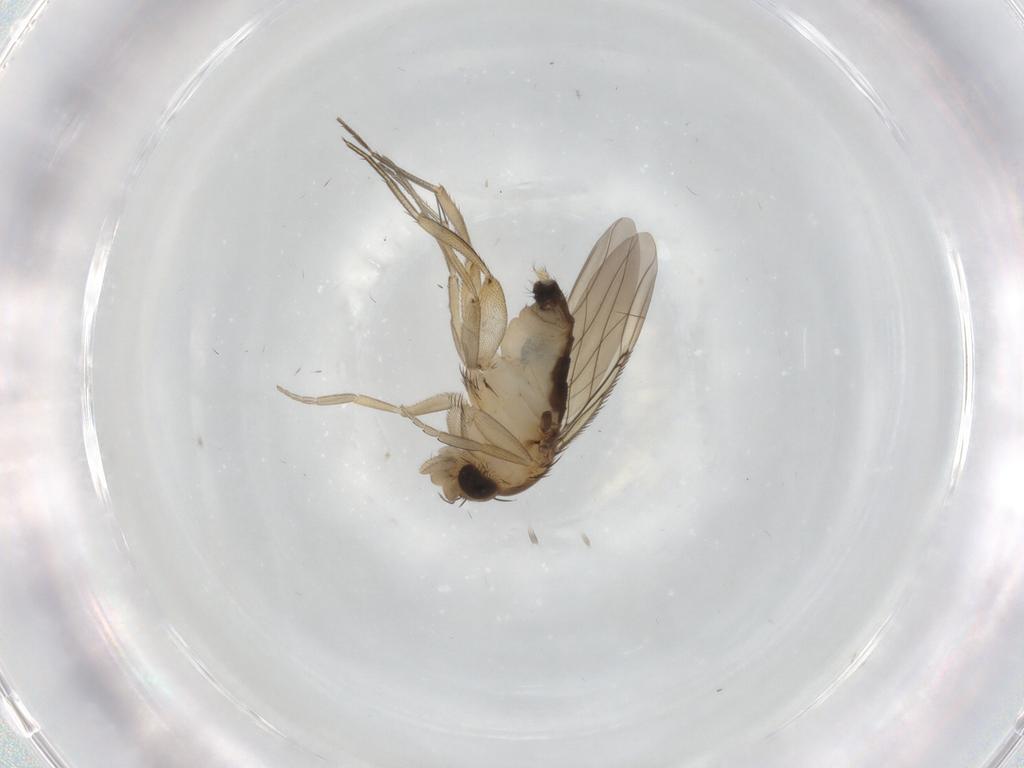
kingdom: Animalia
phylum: Arthropoda
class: Insecta
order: Diptera
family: Phoridae
